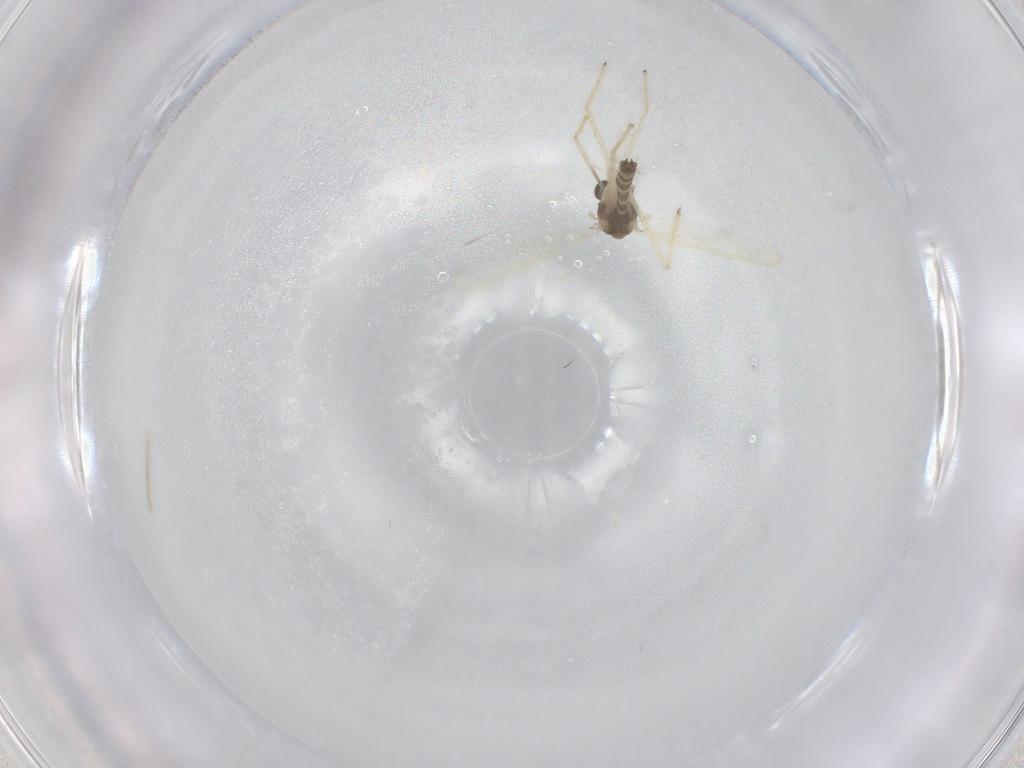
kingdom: Animalia
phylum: Arthropoda
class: Insecta
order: Diptera
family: Chironomidae
